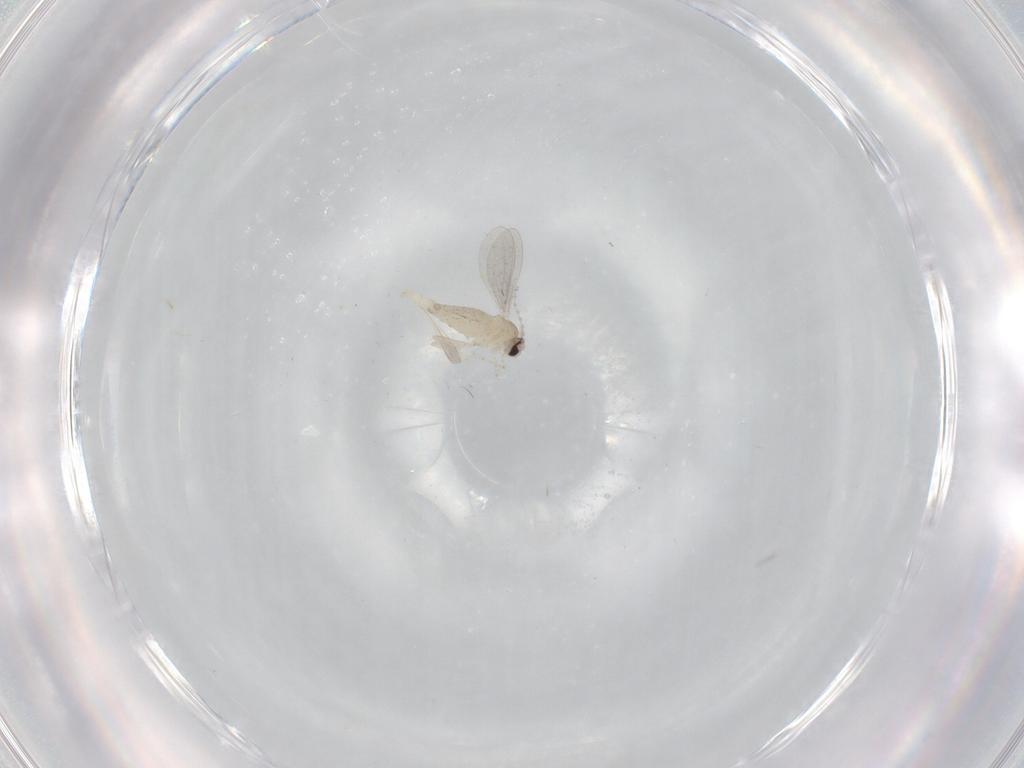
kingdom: Animalia
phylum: Arthropoda
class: Insecta
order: Diptera
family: Cecidomyiidae
